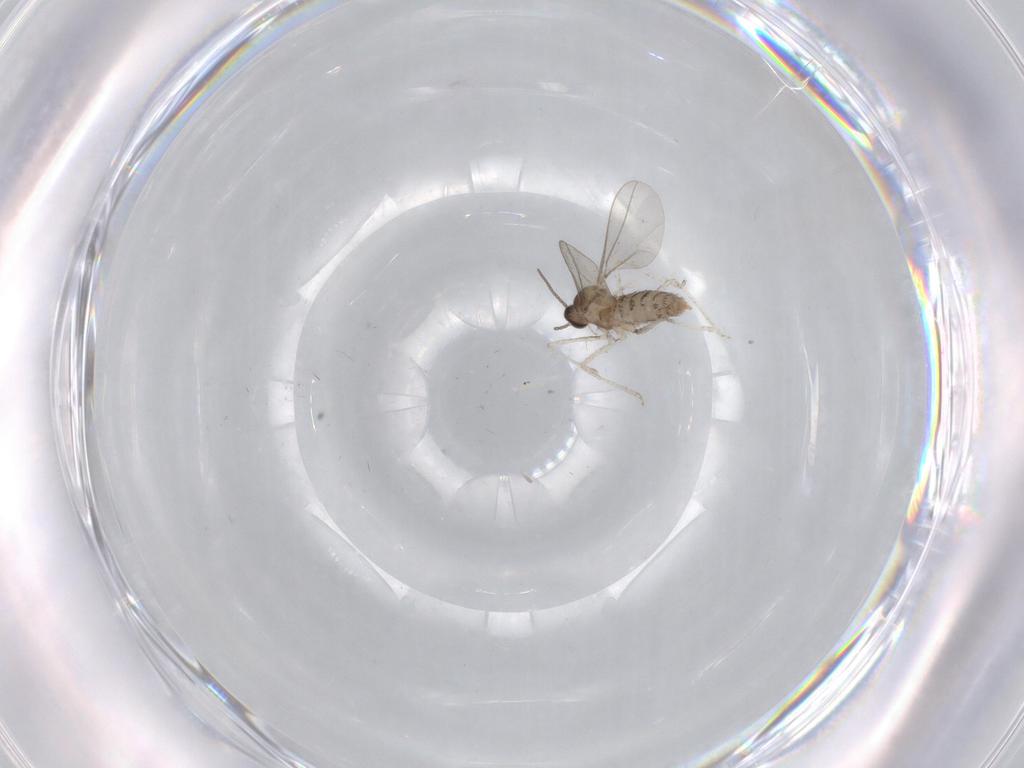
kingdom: Animalia
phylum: Arthropoda
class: Insecta
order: Diptera
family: Cecidomyiidae
